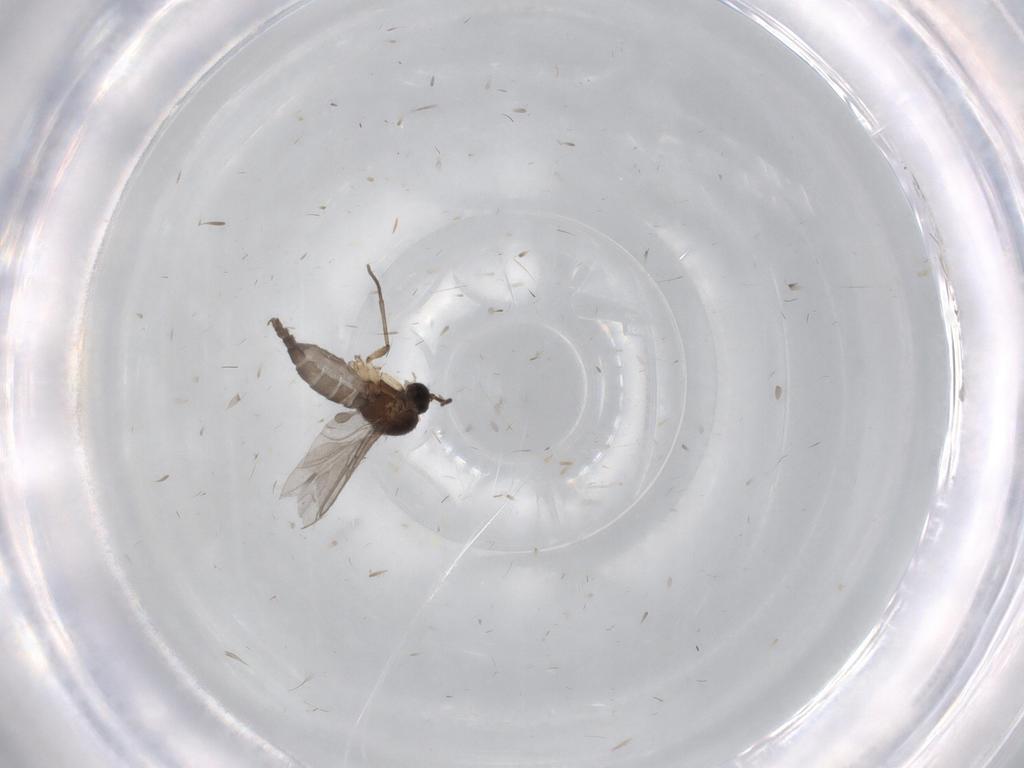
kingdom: Animalia
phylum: Arthropoda
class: Insecta
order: Diptera
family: Sciaridae
